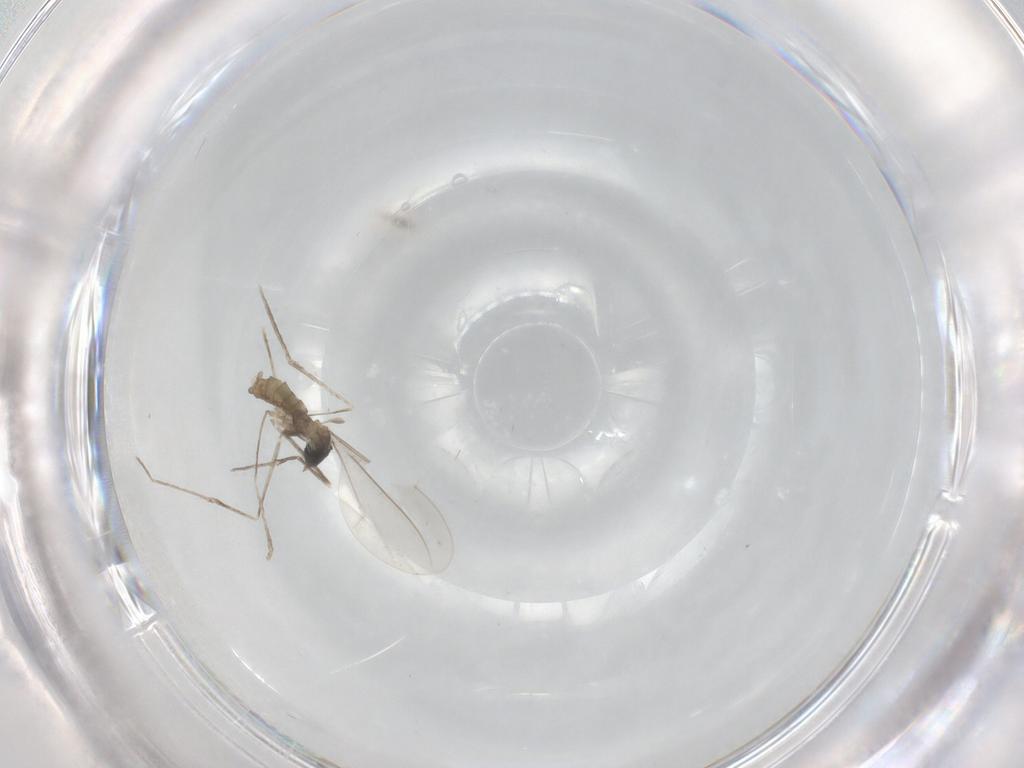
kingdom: Animalia
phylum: Arthropoda
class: Insecta
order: Diptera
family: Cecidomyiidae
